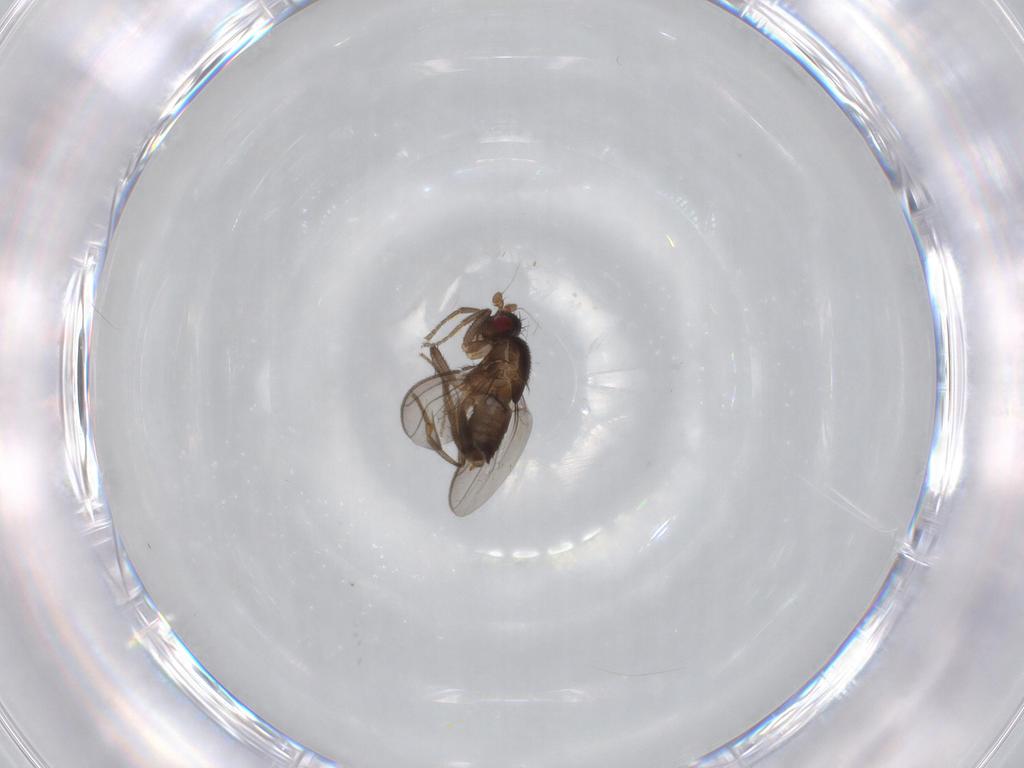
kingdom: Animalia
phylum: Arthropoda
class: Insecta
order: Diptera
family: Sphaeroceridae
